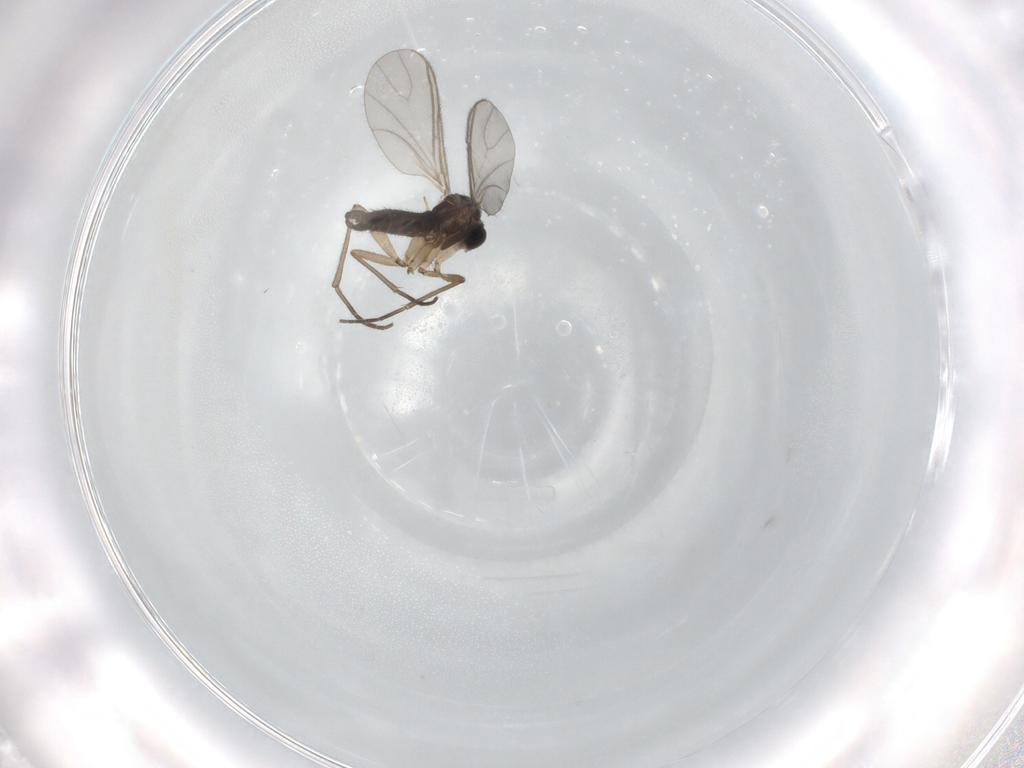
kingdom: Animalia
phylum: Arthropoda
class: Insecta
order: Diptera
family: Sciaridae
